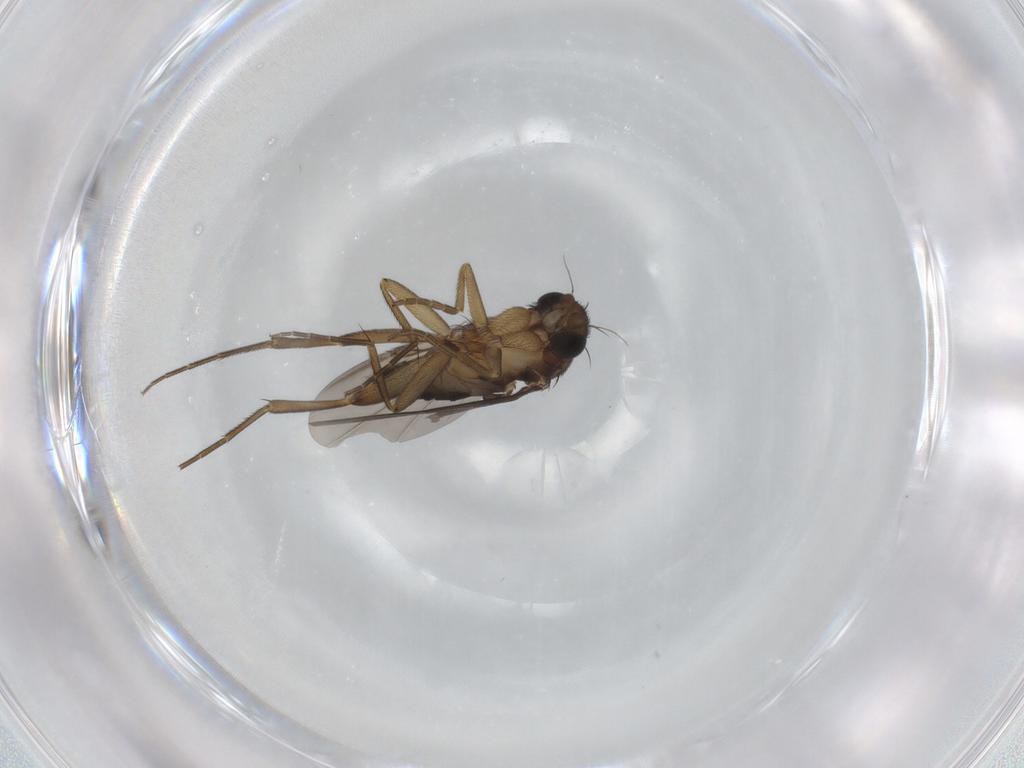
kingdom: Animalia
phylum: Arthropoda
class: Insecta
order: Diptera
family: Phoridae
